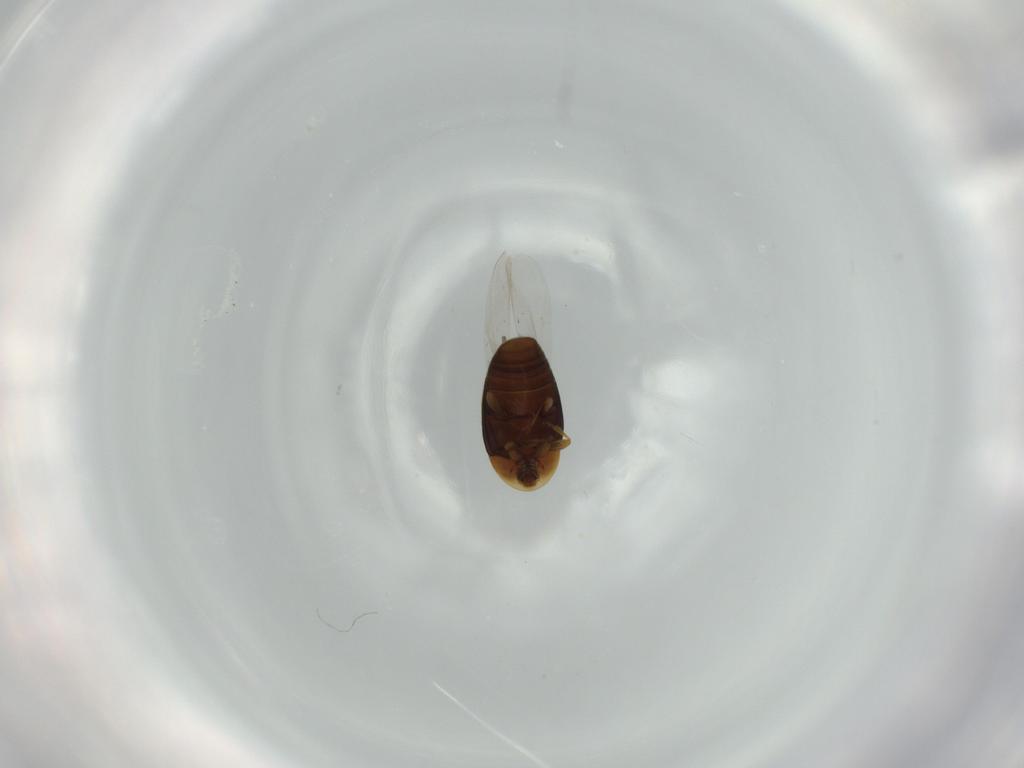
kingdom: Animalia
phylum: Arthropoda
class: Insecta
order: Coleoptera
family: Corylophidae
